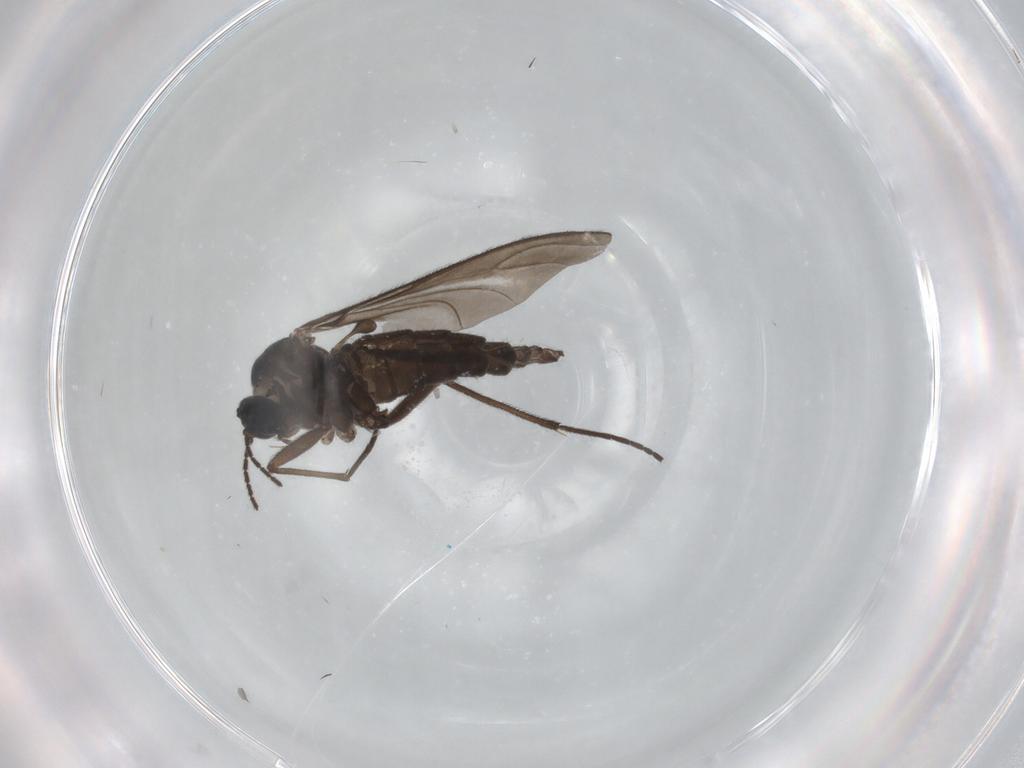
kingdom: Animalia
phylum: Arthropoda
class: Insecta
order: Diptera
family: Sciaridae
